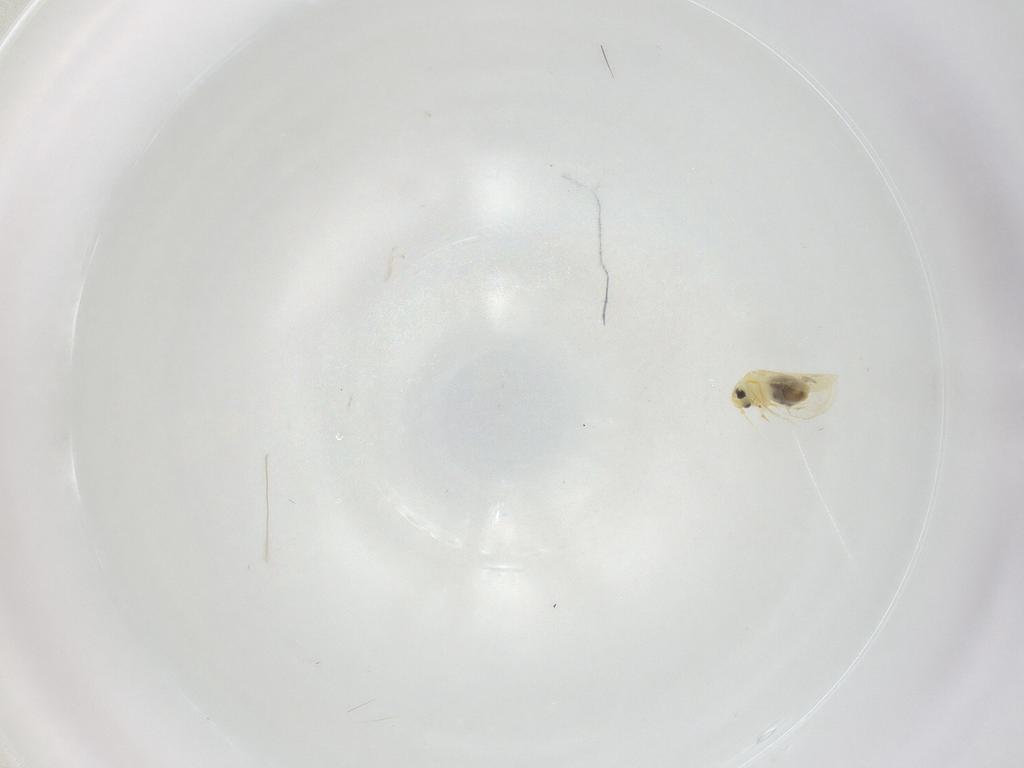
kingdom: Animalia
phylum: Arthropoda
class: Insecta
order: Hemiptera
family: Aleyrodidae
